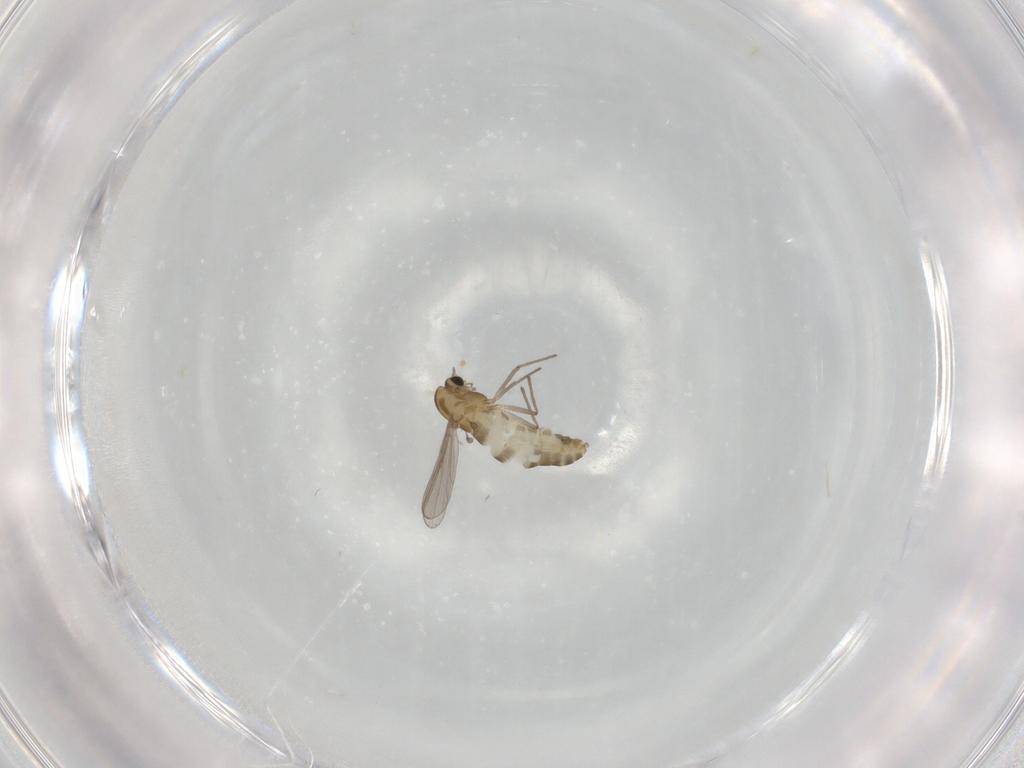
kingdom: Animalia
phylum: Arthropoda
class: Insecta
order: Diptera
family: Chironomidae
